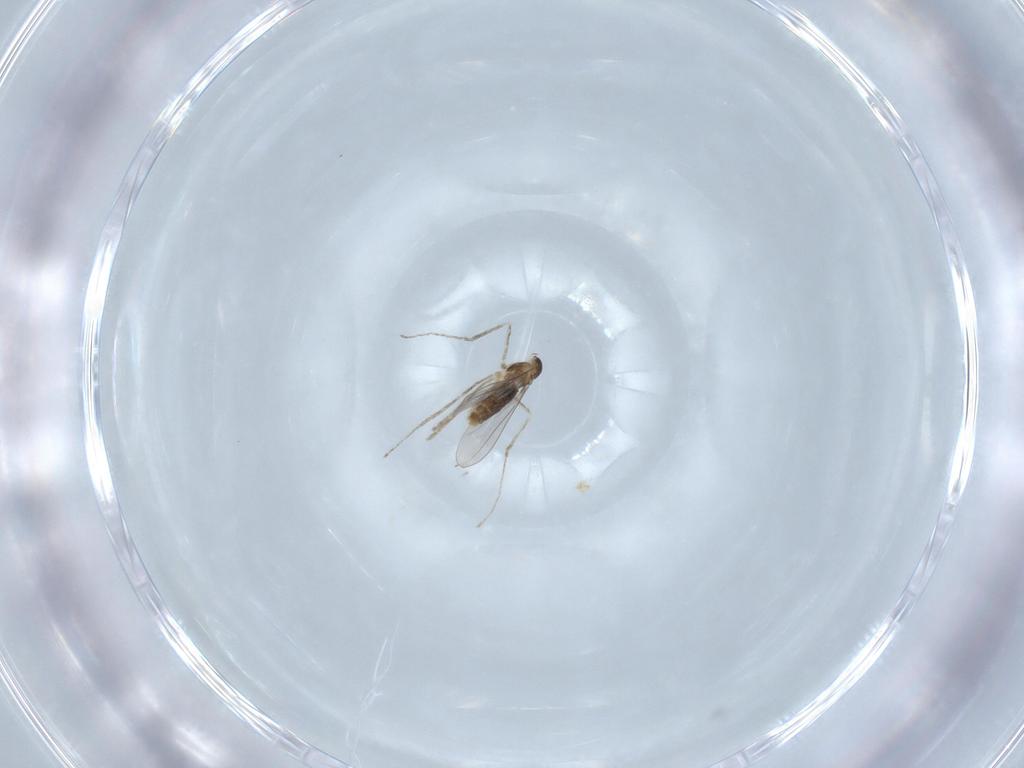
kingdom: Animalia
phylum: Arthropoda
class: Insecta
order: Diptera
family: Cecidomyiidae
